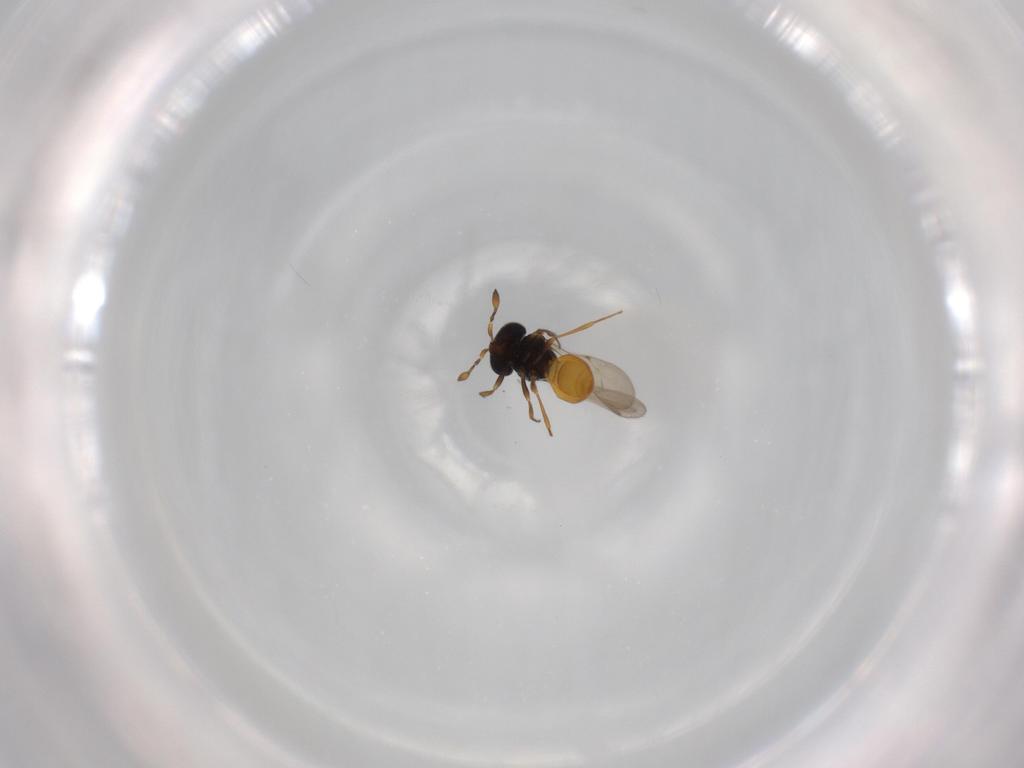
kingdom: Animalia
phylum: Arthropoda
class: Insecta
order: Hymenoptera
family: Scelionidae
